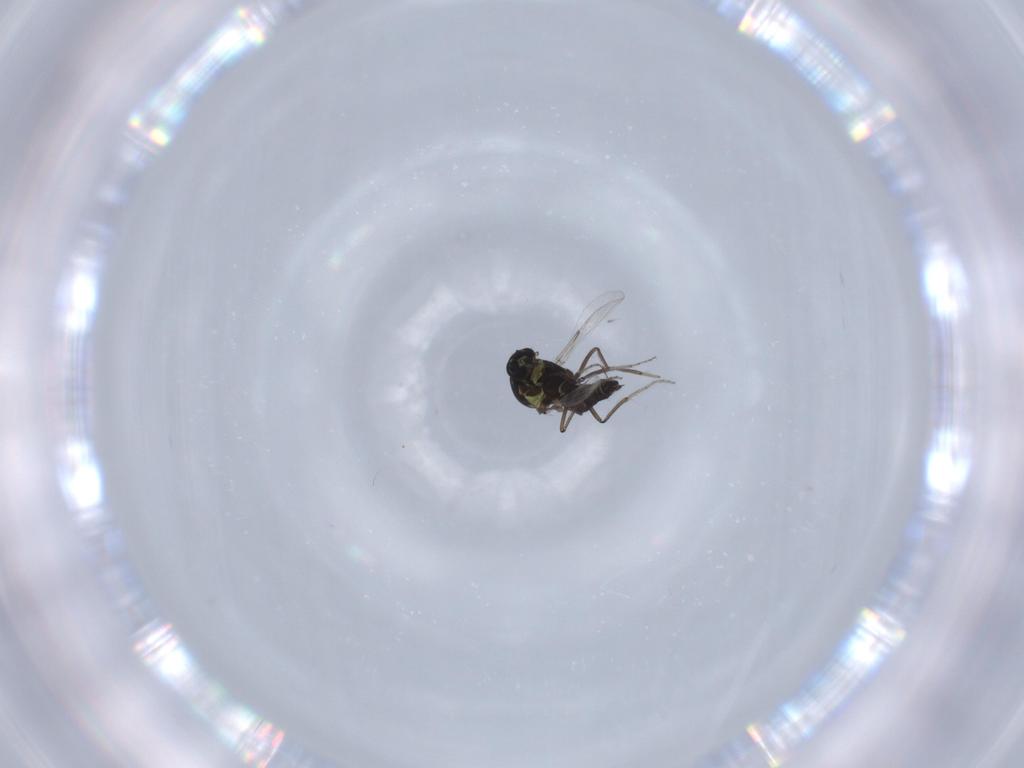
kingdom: Animalia
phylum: Arthropoda
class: Insecta
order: Diptera
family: Ceratopogonidae
